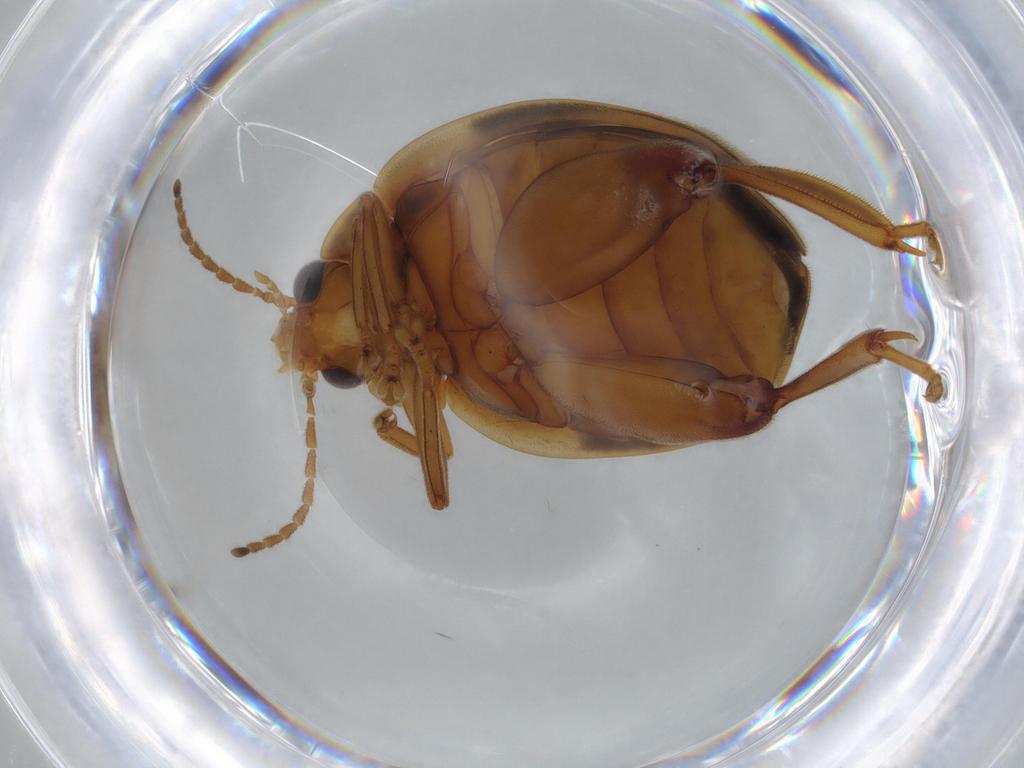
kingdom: Animalia
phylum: Arthropoda
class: Insecta
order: Coleoptera
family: Scirtidae
